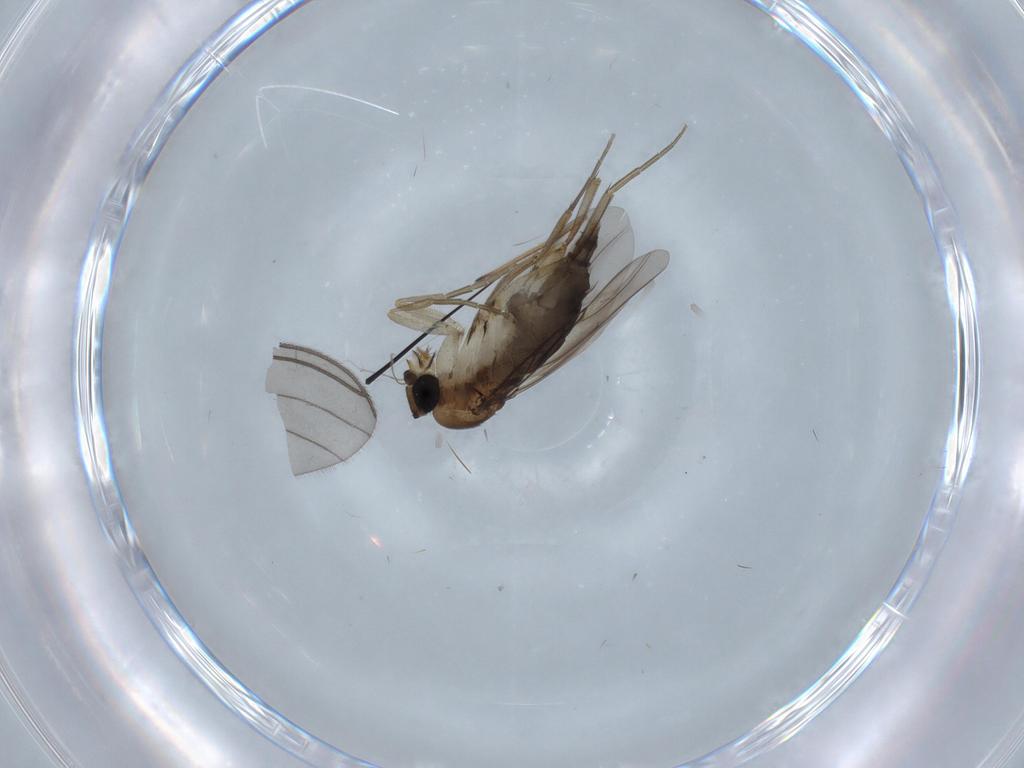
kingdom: Animalia
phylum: Arthropoda
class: Insecta
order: Diptera
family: Phoridae
